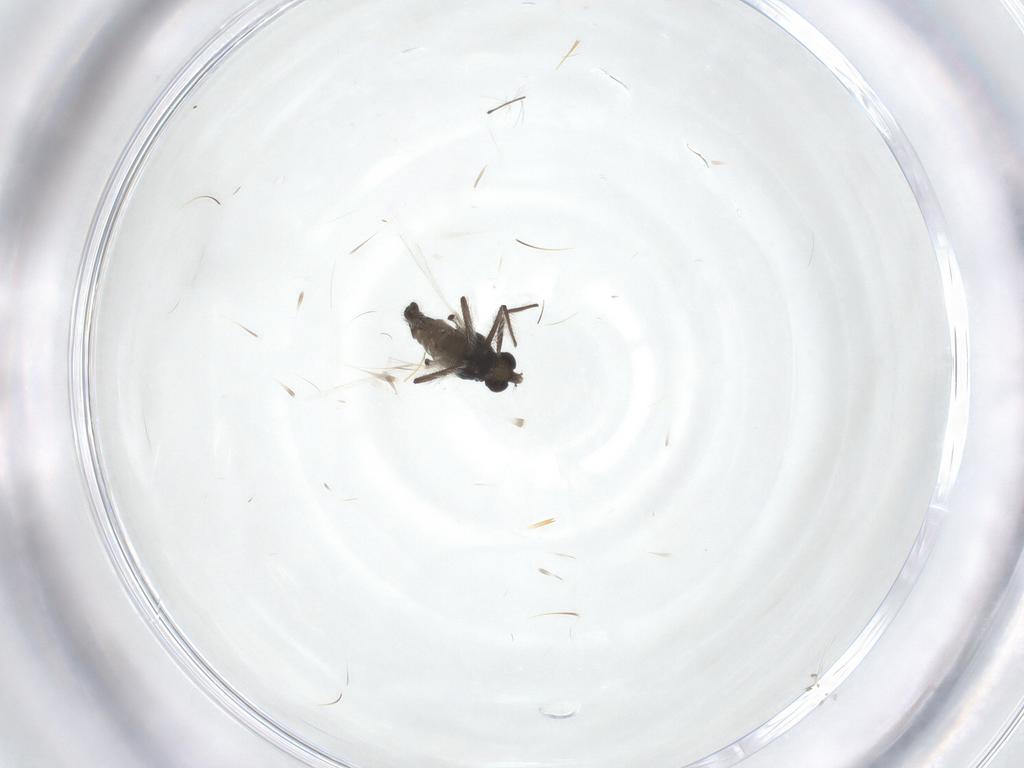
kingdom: Animalia
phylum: Arthropoda
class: Insecta
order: Diptera
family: Chironomidae
